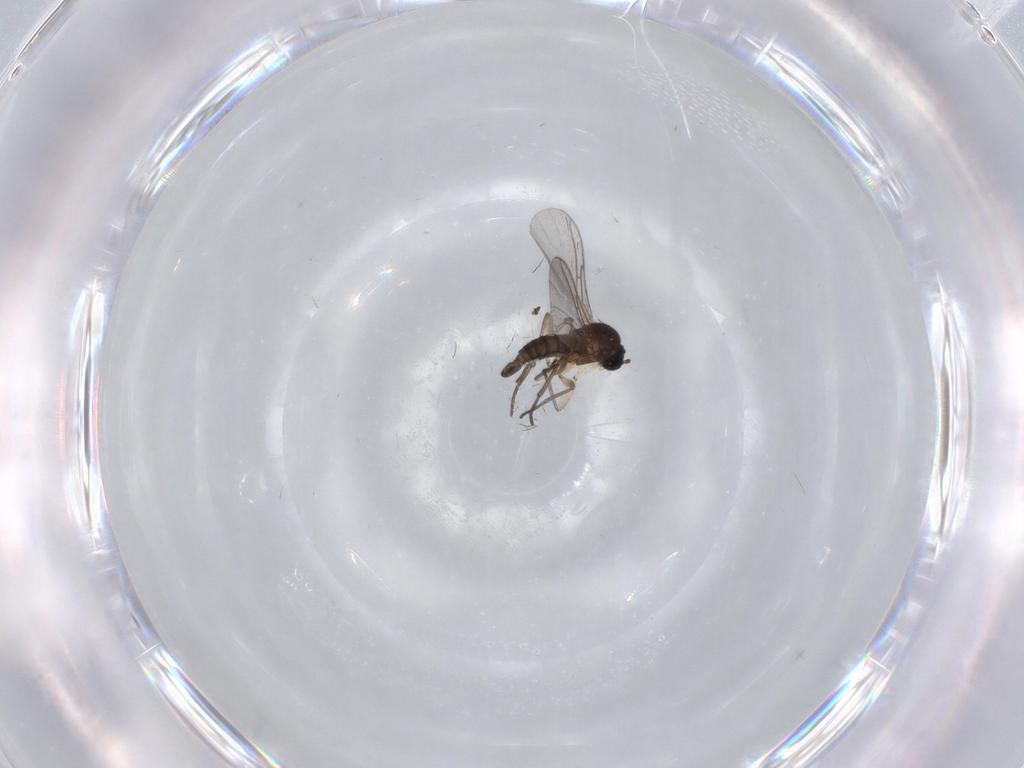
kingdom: Animalia
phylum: Arthropoda
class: Insecta
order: Diptera
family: Sciaridae
